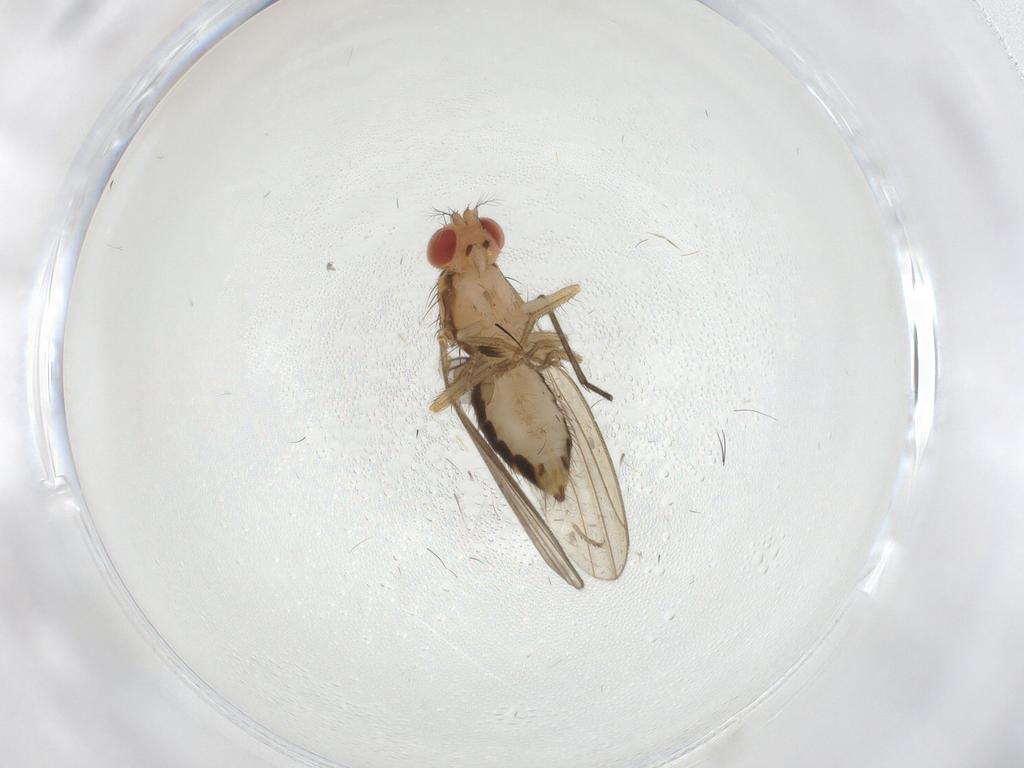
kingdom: Animalia
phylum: Arthropoda
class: Insecta
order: Diptera
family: Drosophilidae
